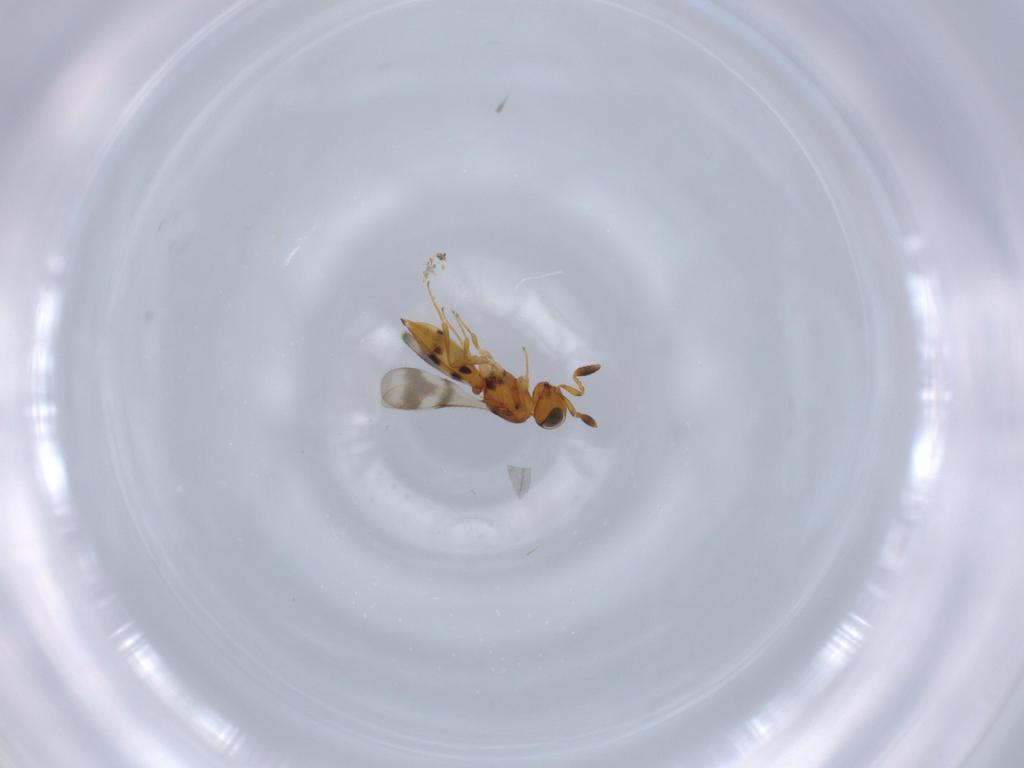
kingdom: Animalia
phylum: Arthropoda
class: Insecta
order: Hymenoptera
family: Scelionidae
